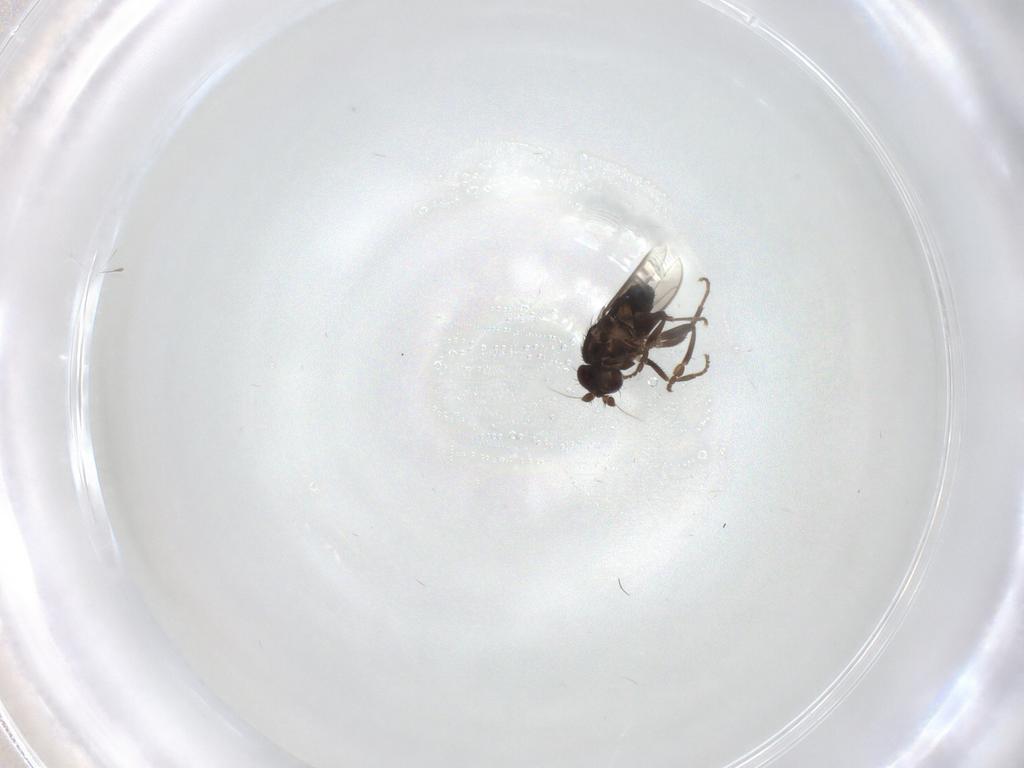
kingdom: Animalia
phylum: Arthropoda
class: Insecta
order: Diptera
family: Sphaeroceridae
